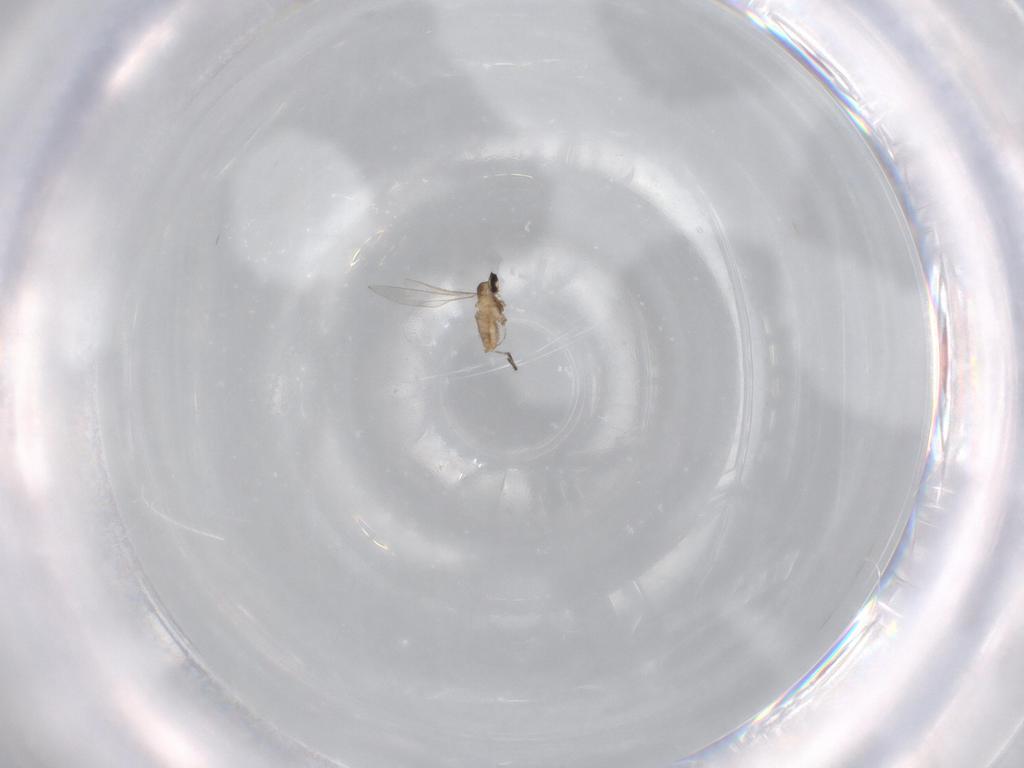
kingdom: Animalia
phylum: Arthropoda
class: Insecta
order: Diptera
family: Cecidomyiidae
